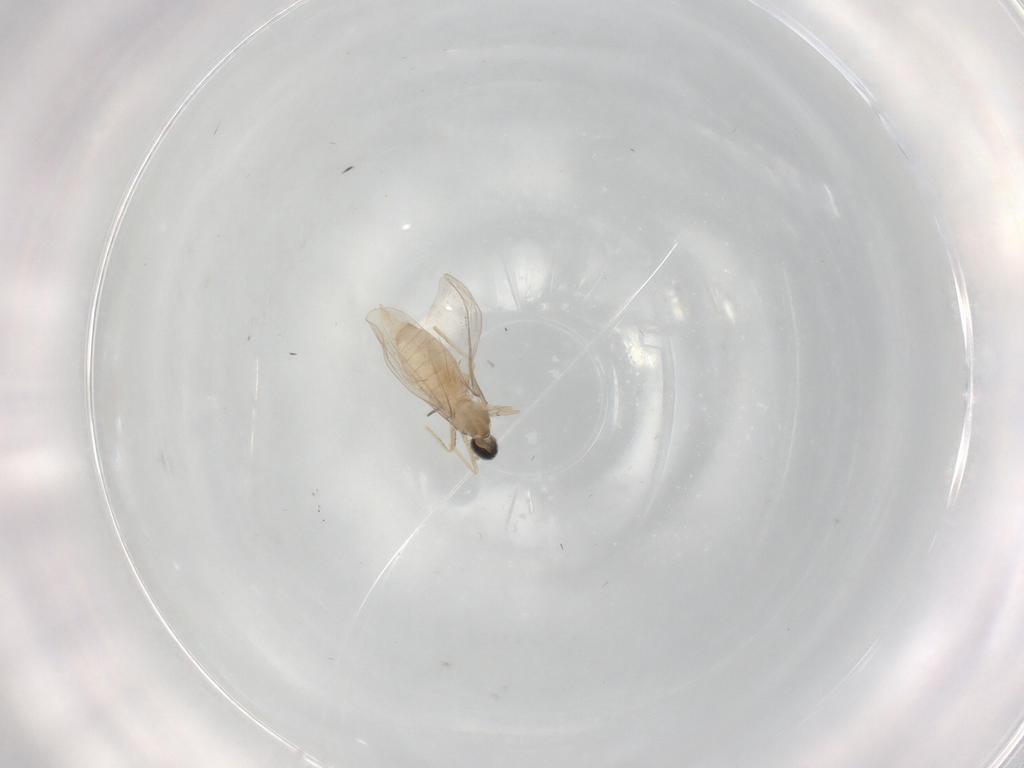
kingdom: Animalia
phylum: Arthropoda
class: Insecta
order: Diptera
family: Cecidomyiidae
